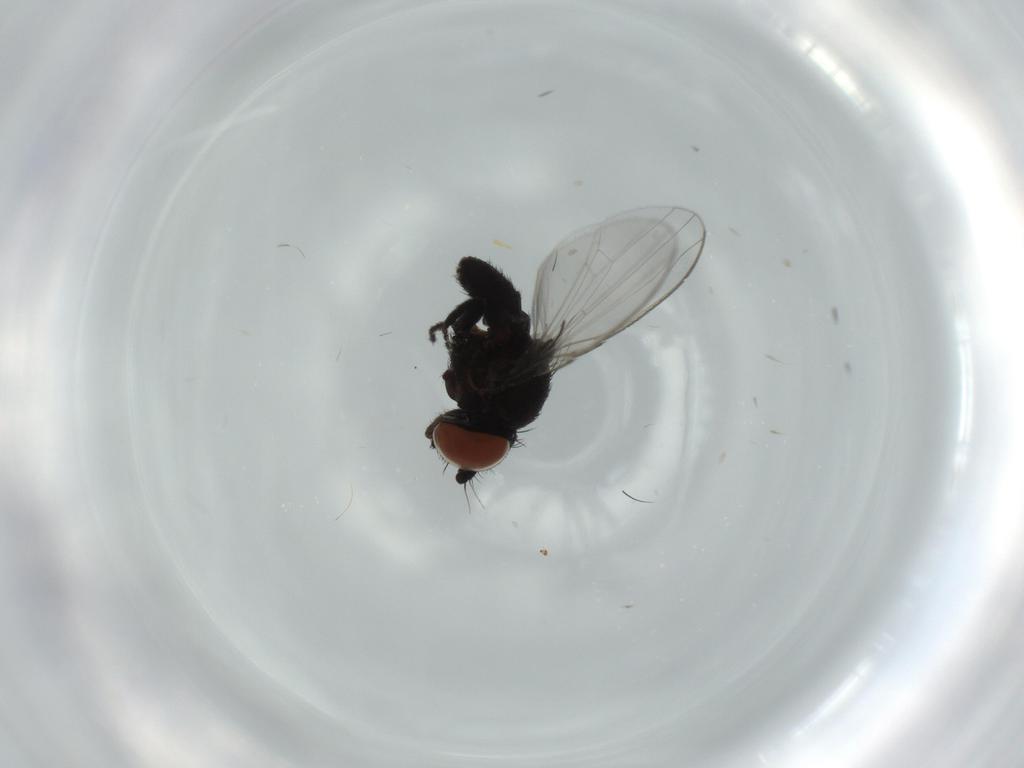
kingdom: Animalia
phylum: Arthropoda
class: Insecta
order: Diptera
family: Milichiidae
